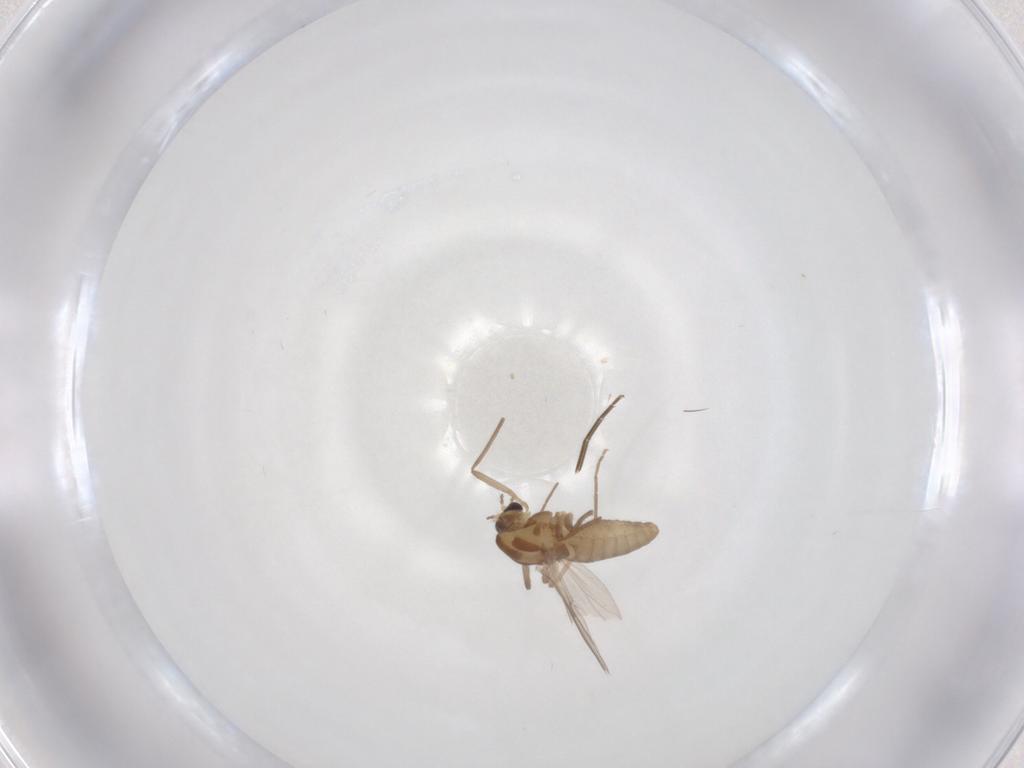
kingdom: Animalia
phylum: Arthropoda
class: Insecta
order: Diptera
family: Chironomidae
